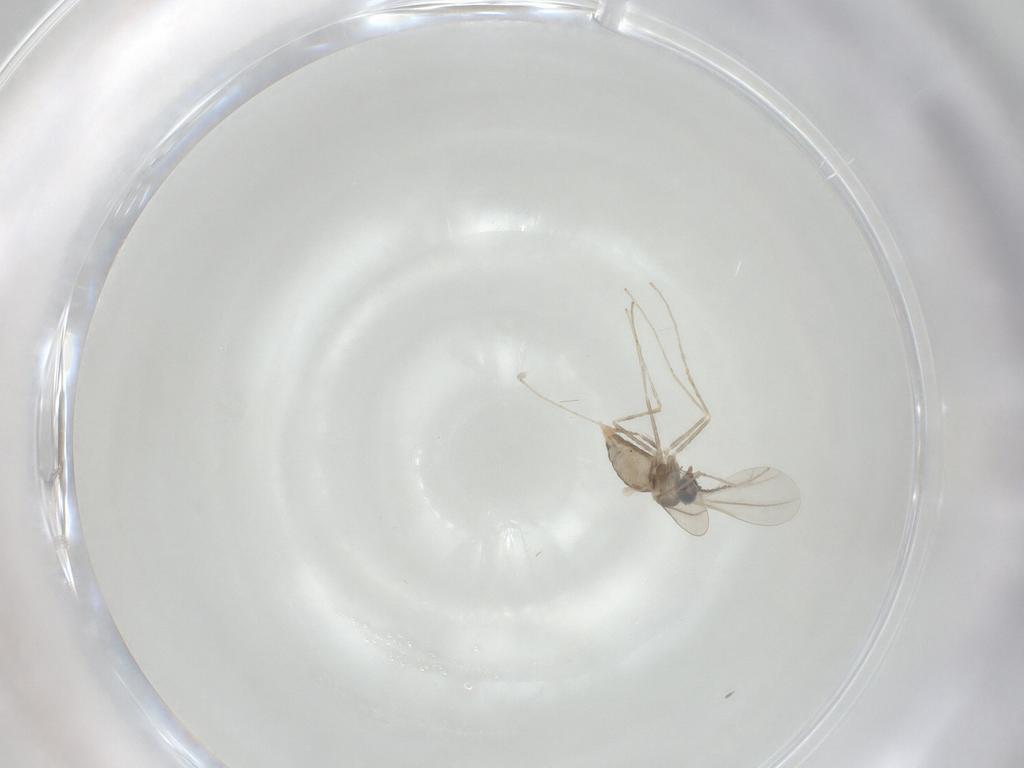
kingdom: Animalia
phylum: Arthropoda
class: Insecta
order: Diptera
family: Cecidomyiidae
